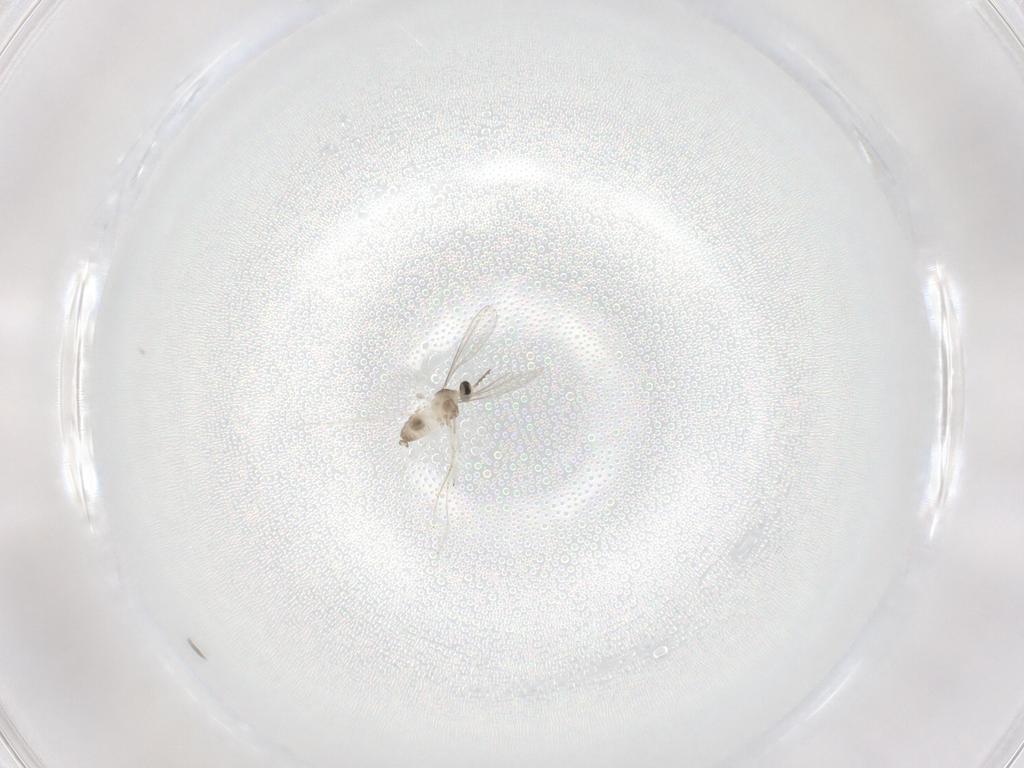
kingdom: Animalia
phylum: Arthropoda
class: Insecta
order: Diptera
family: Cecidomyiidae
